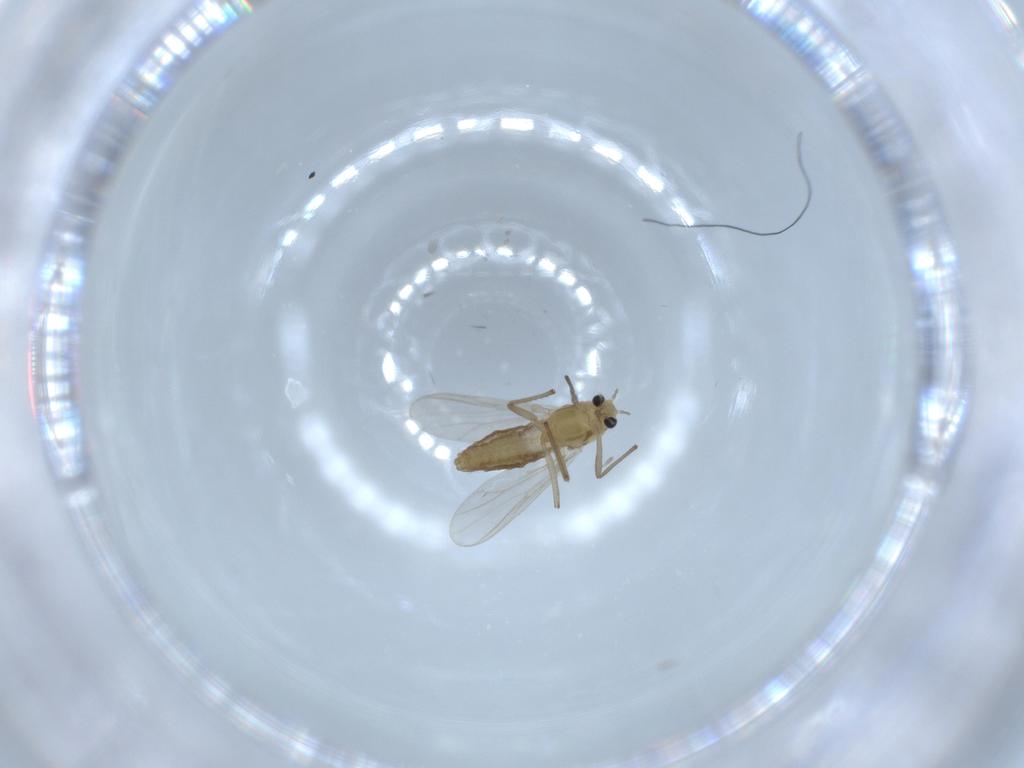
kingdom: Animalia
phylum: Arthropoda
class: Insecta
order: Diptera
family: Chironomidae
